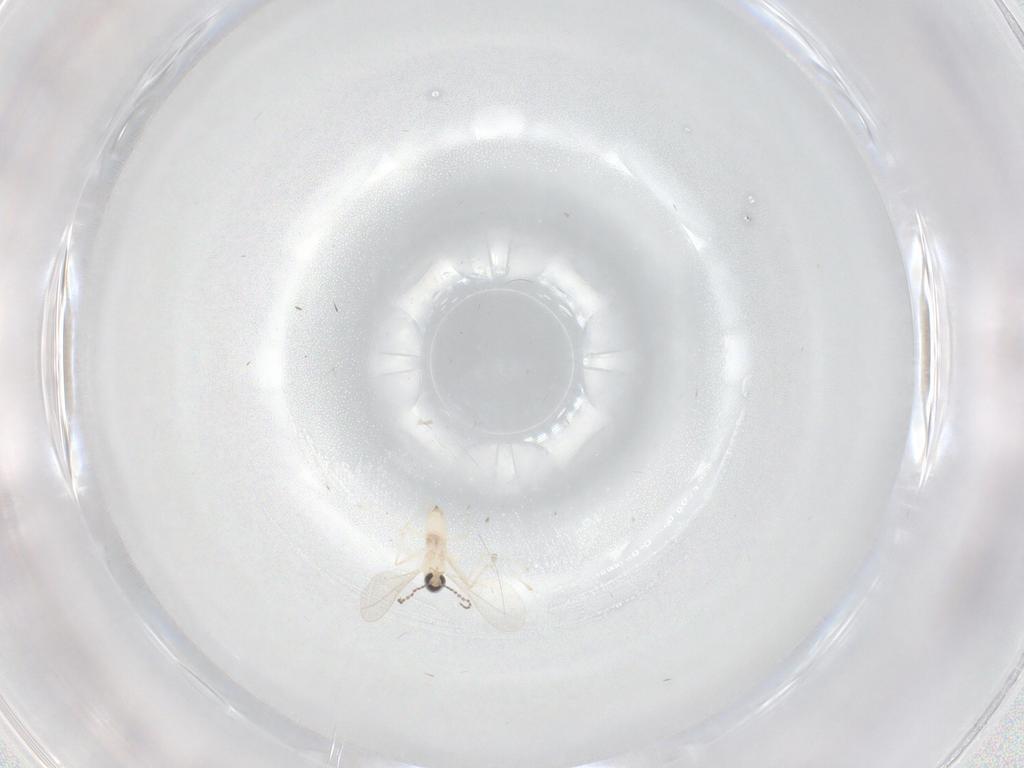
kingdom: Animalia
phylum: Arthropoda
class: Insecta
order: Diptera
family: Cecidomyiidae
